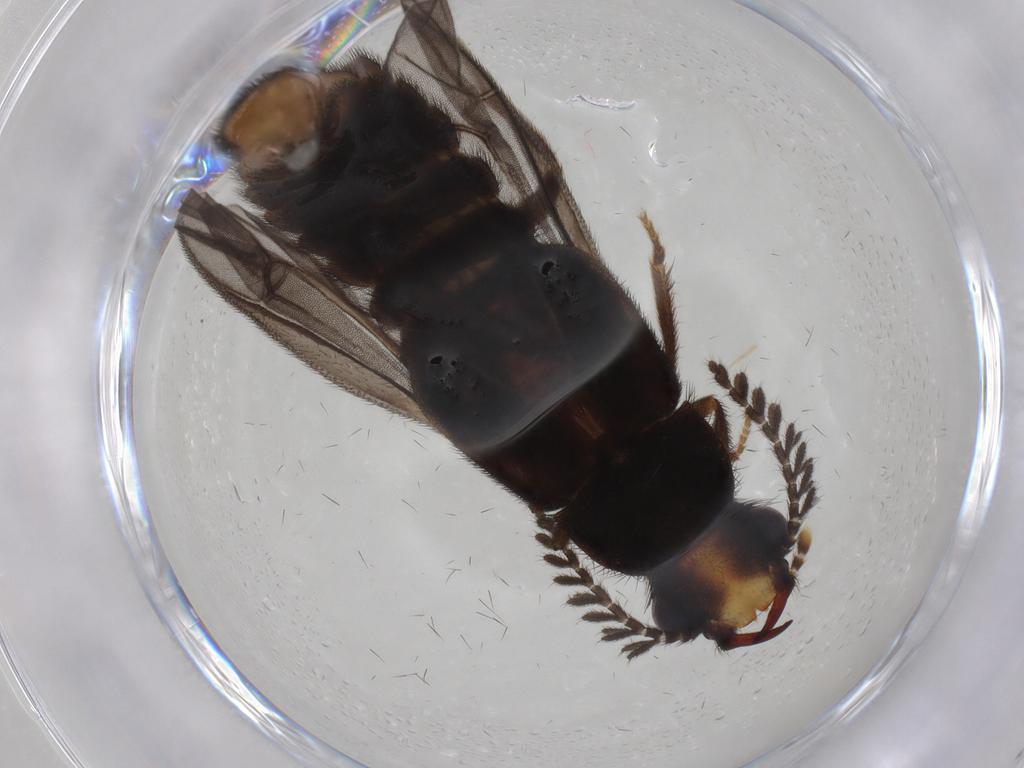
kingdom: Animalia
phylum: Arthropoda
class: Insecta
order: Coleoptera
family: Phengodidae
